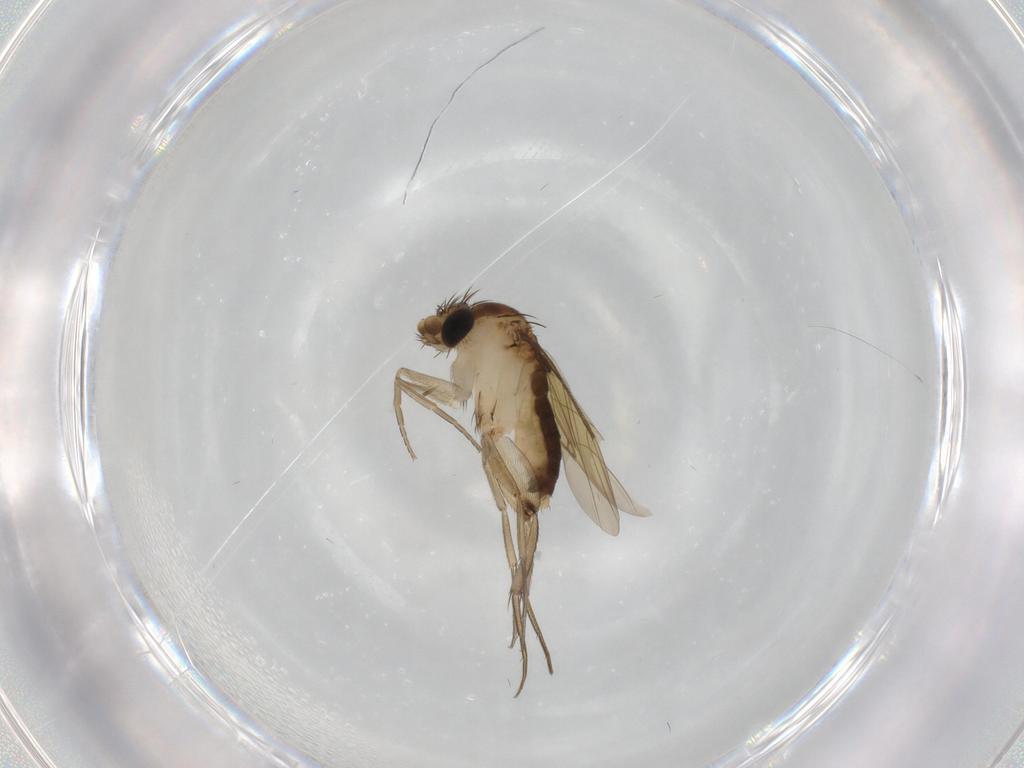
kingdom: Animalia
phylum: Arthropoda
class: Insecta
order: Diptera
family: Phoridae
